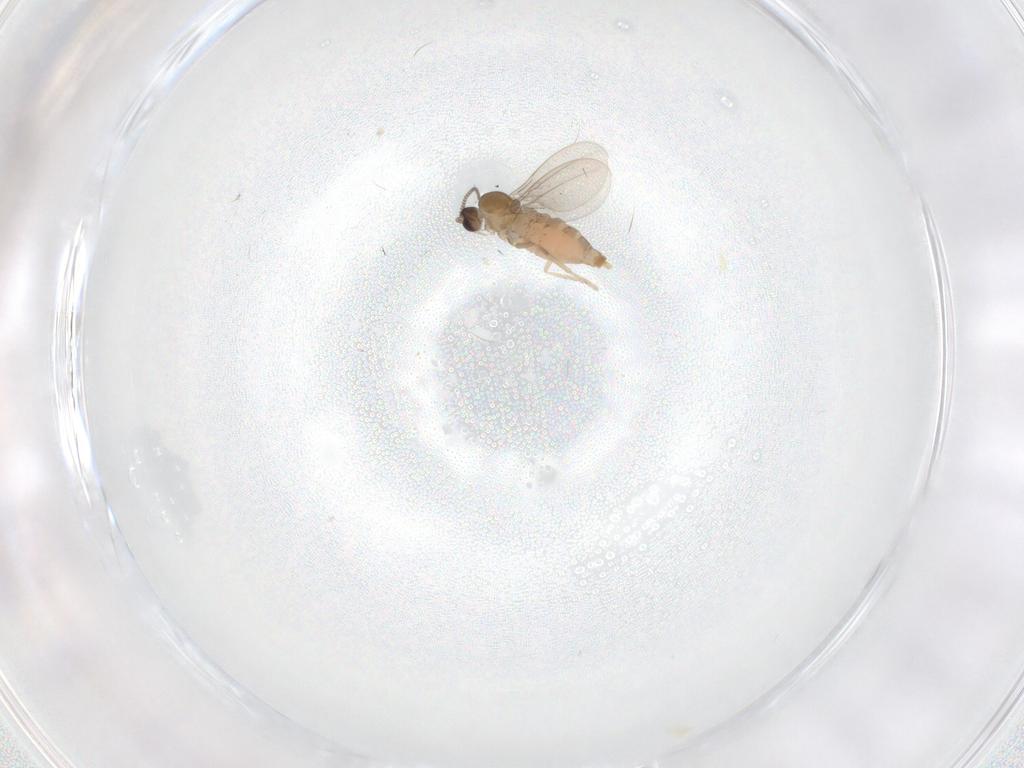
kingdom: Animalia
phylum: Arthropoda
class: Insecta
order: Diptera
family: Cecidomyiidae
